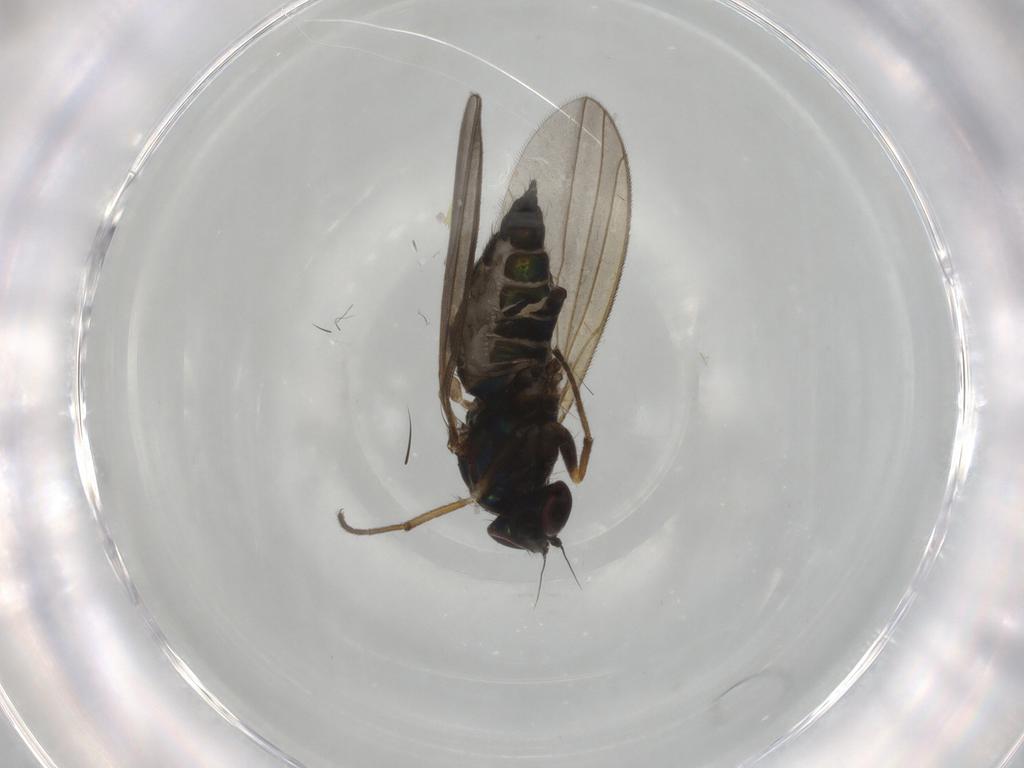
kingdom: Animalia
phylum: Arthropoda
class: Insecta
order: Diptera
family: Dolichopodidae
